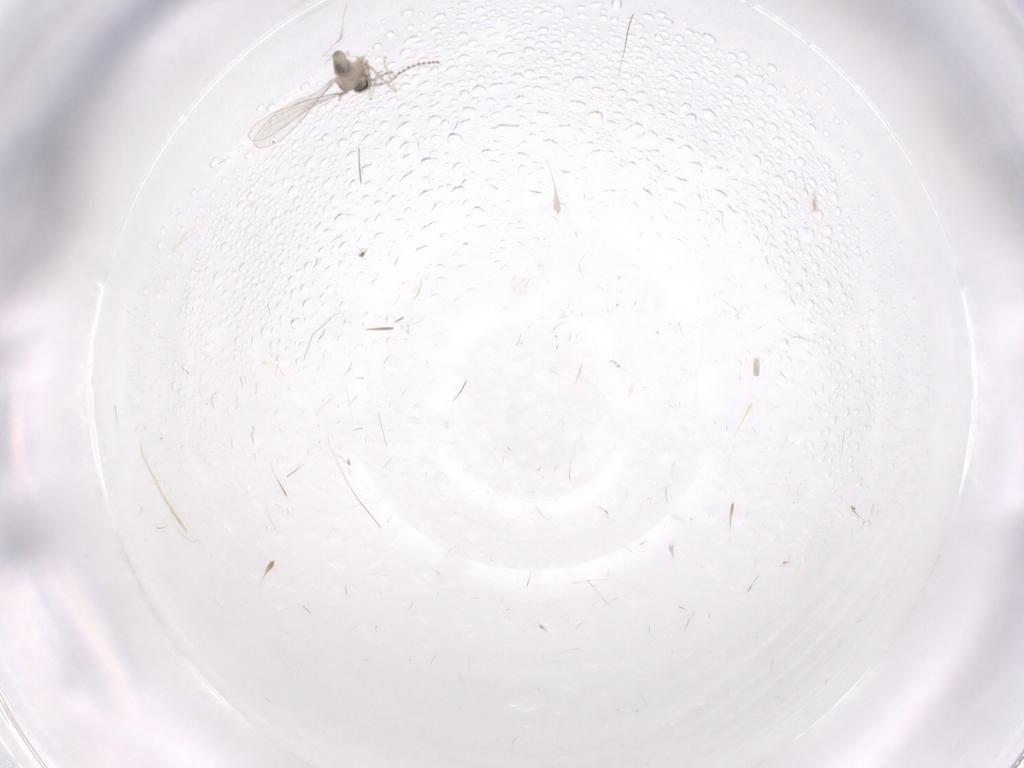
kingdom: Animalia
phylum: Arthropoda
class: Insecta
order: Diptera
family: Cecidomyiidae
